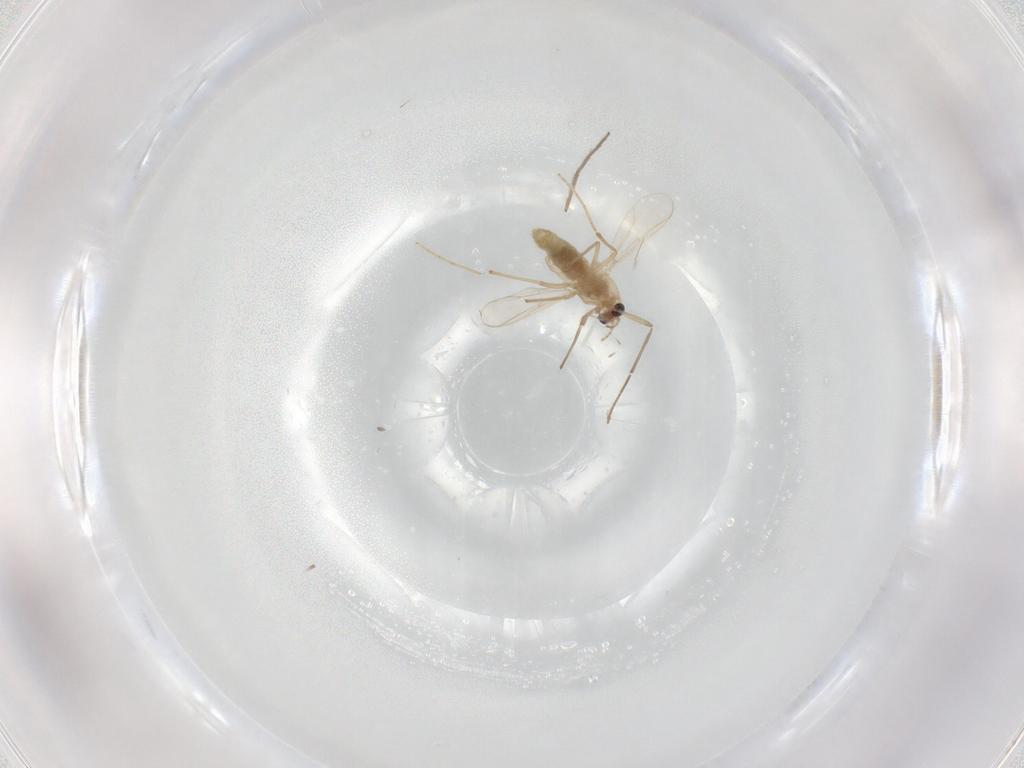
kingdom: Animalia
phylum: Arthropoda
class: Insecta
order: Diptera
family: Chironomidae
